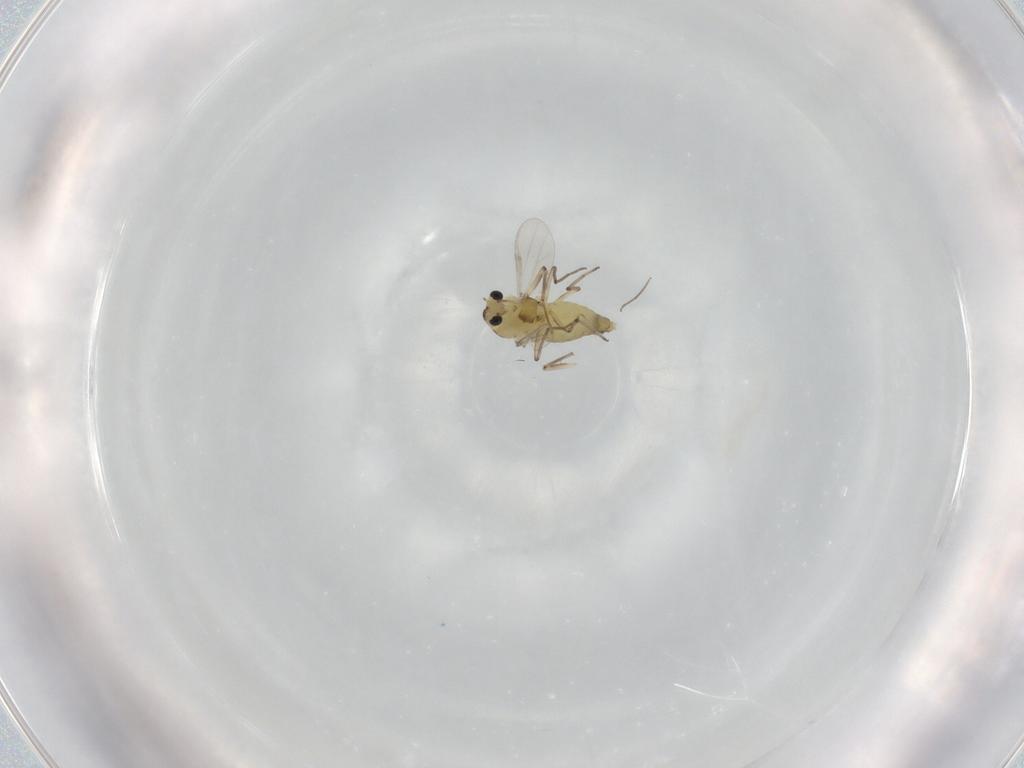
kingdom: Animalia
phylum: Arthropoda
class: Insecta
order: Diptera
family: Chironomidae
